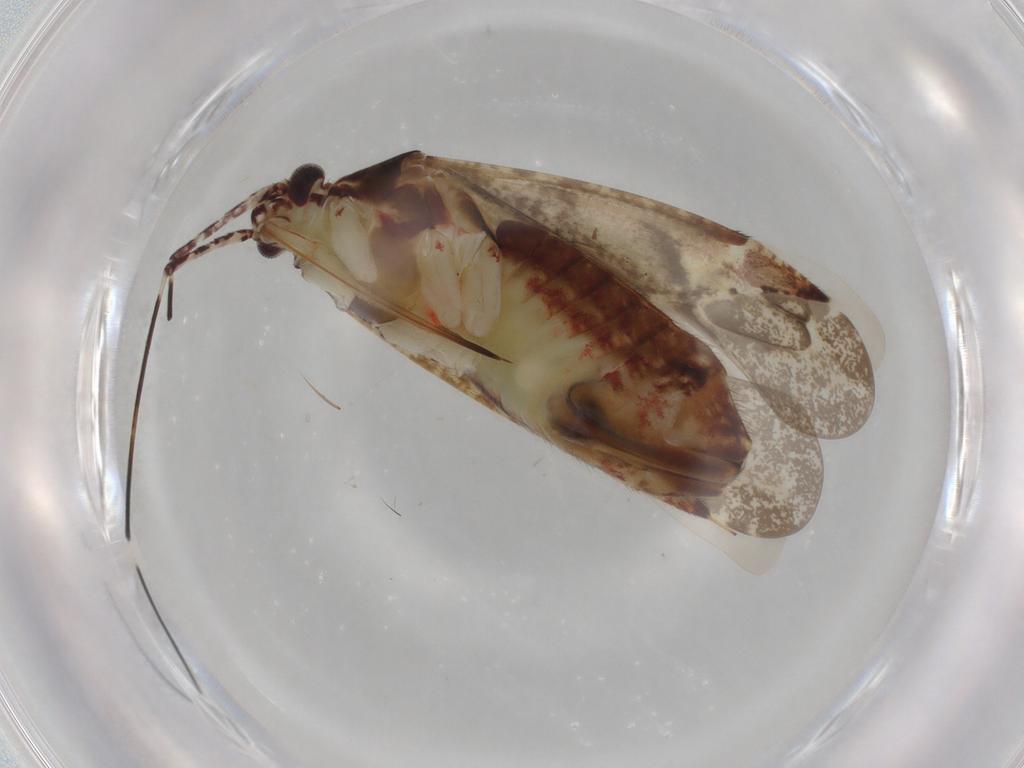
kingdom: Animalia
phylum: Arthropoda
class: Insecta
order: Hemiptera
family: Miridae
